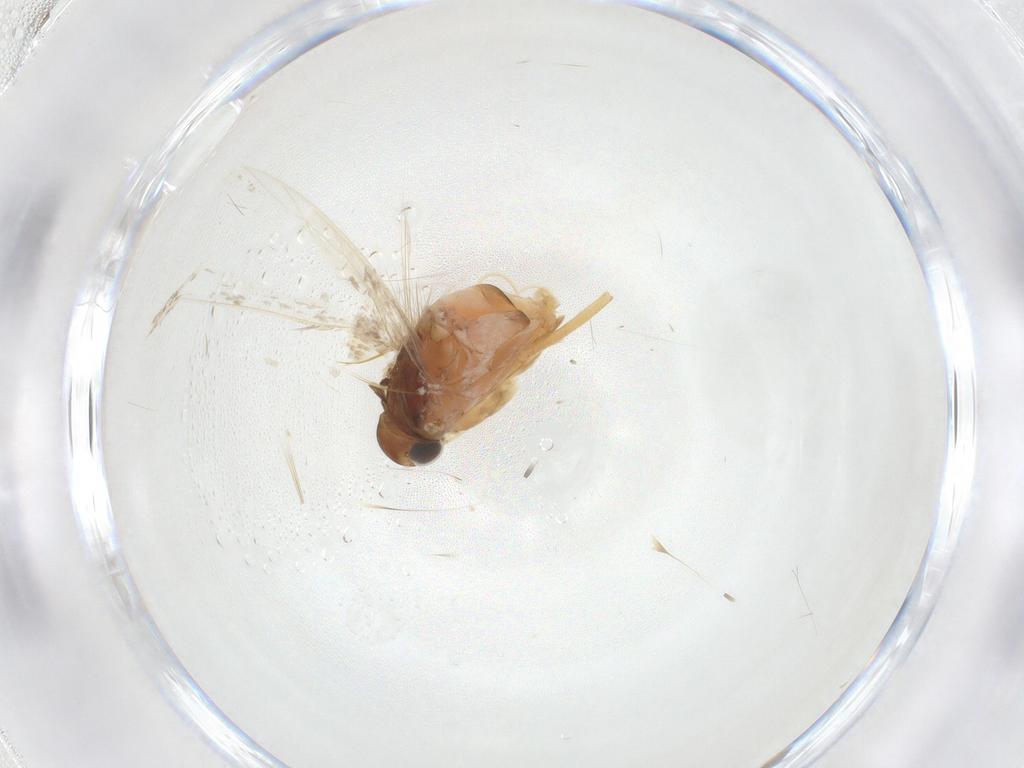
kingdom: Animalia
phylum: Arthropoda
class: Insecta
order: Lepidoptera
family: Gelechiidae
